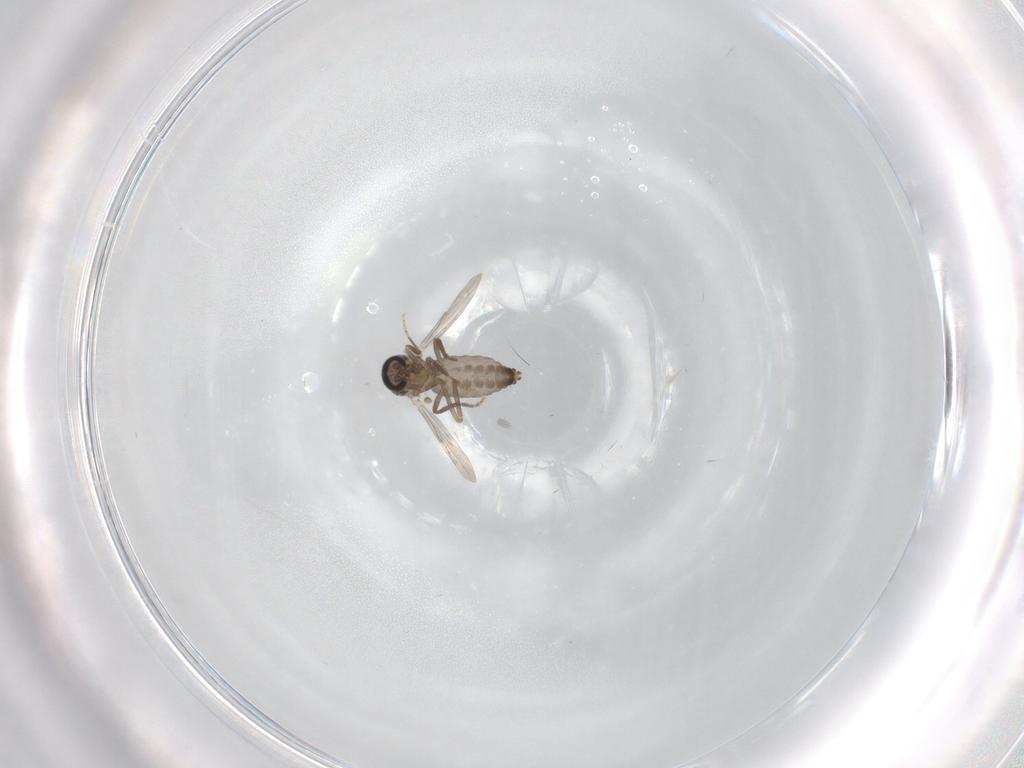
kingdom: Animalia
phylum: Arthropoda
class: Insecta
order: Diptera
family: Ceratopogonidae
